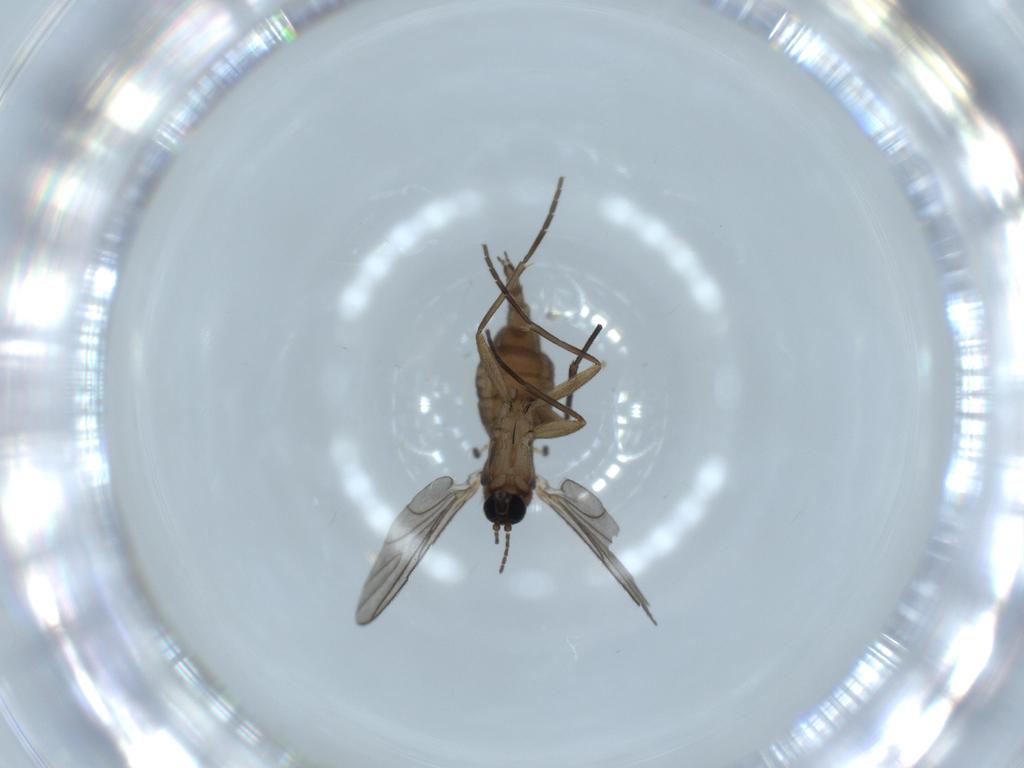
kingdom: Animalia
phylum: Arthropoda
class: Insecta
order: Diptera
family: Sciaridae
